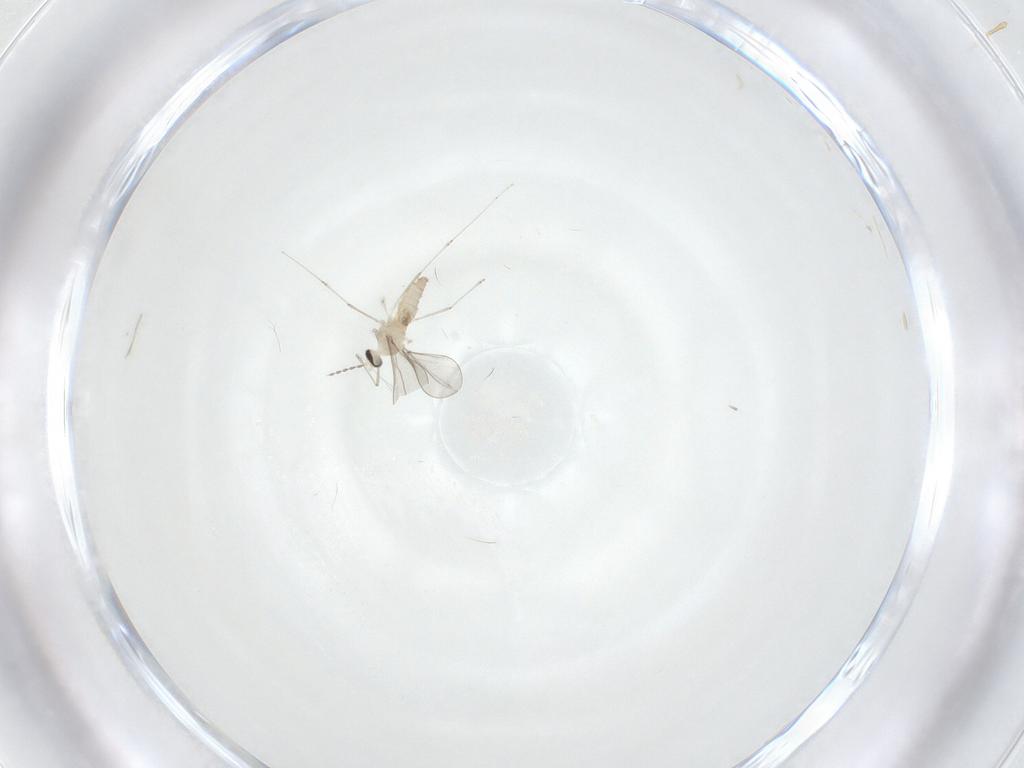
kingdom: Animalia
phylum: Arthropoda
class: Insecta
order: Diptera
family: Cecidomyiidae
